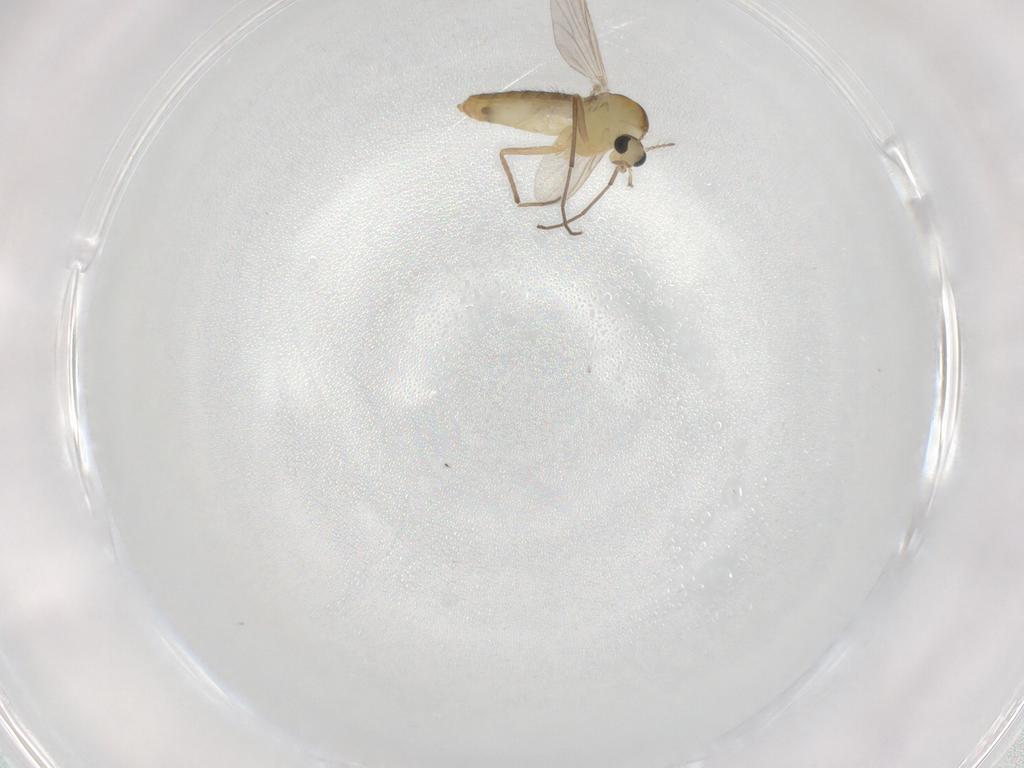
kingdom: Animalia
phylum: Arthropoda
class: Insecta
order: Diptera
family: Chironomidae
